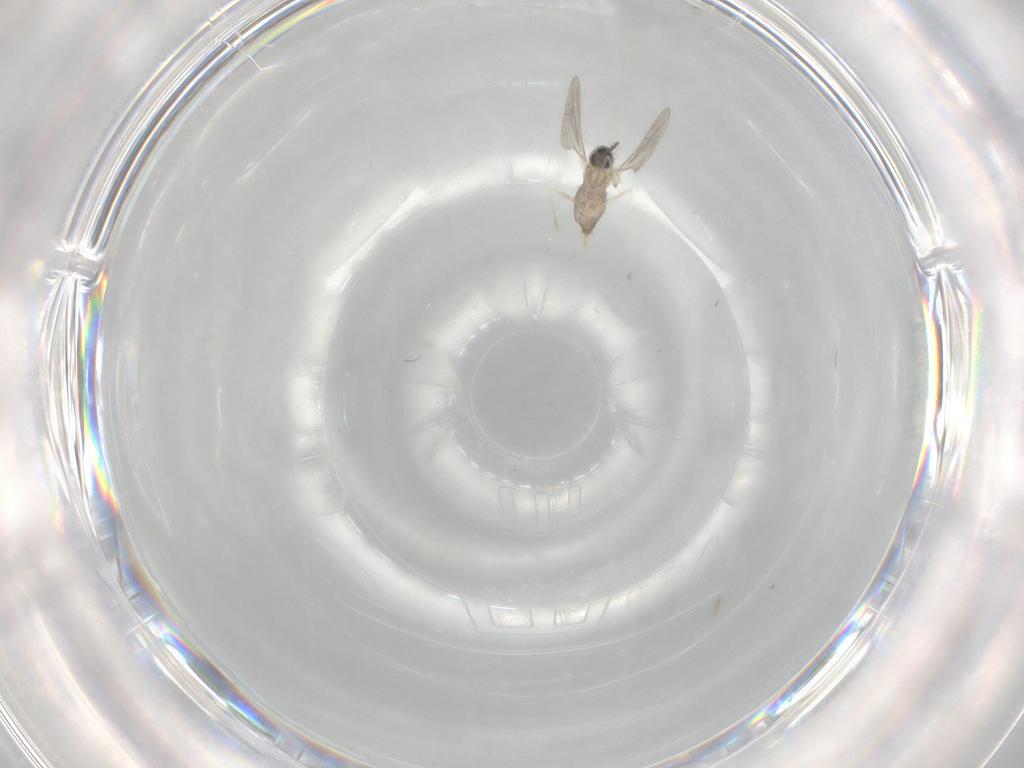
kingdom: Animalia
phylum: Arthropoda
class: Insecta
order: Diptera
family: Cecidomyiidae
